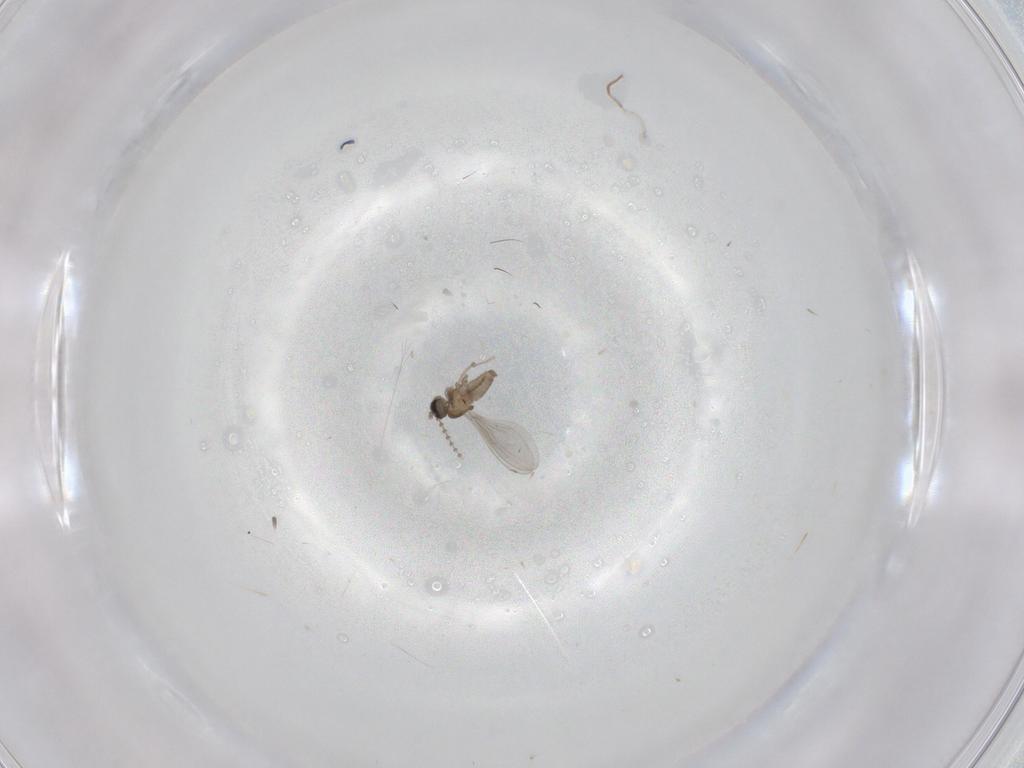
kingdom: Animalia
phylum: Arthropoda
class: Insecta
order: Diptera
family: Cecidomyiidae
